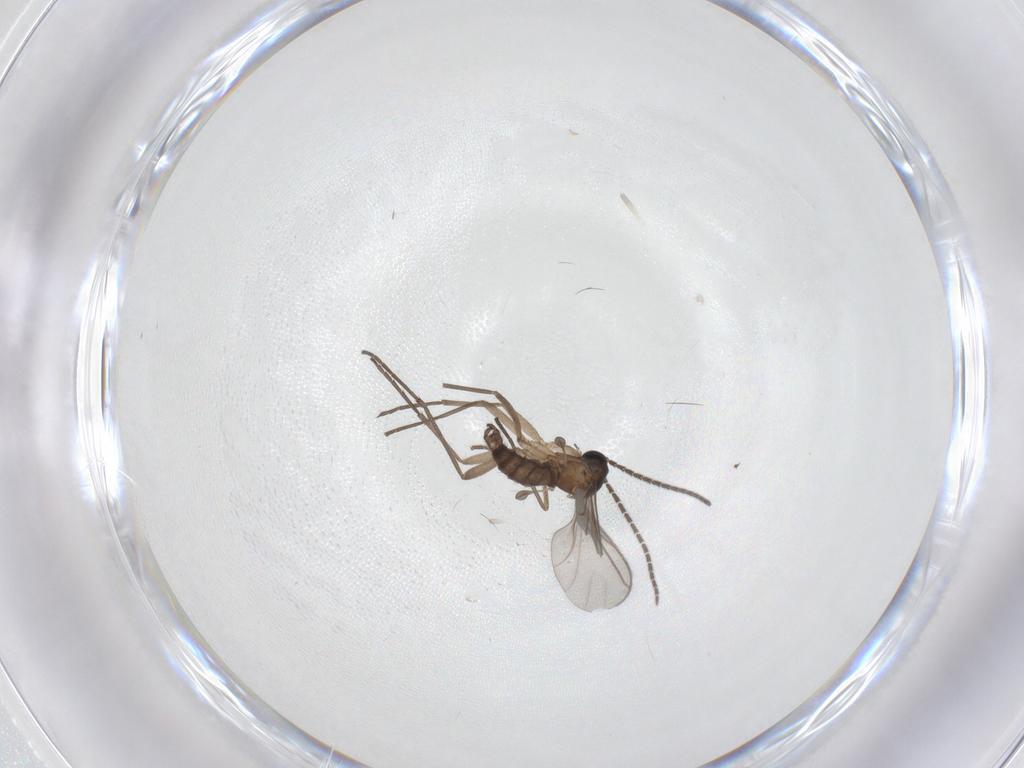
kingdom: Animalia
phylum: Arthropoda
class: Insecta
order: Diptera
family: Sciaridae
